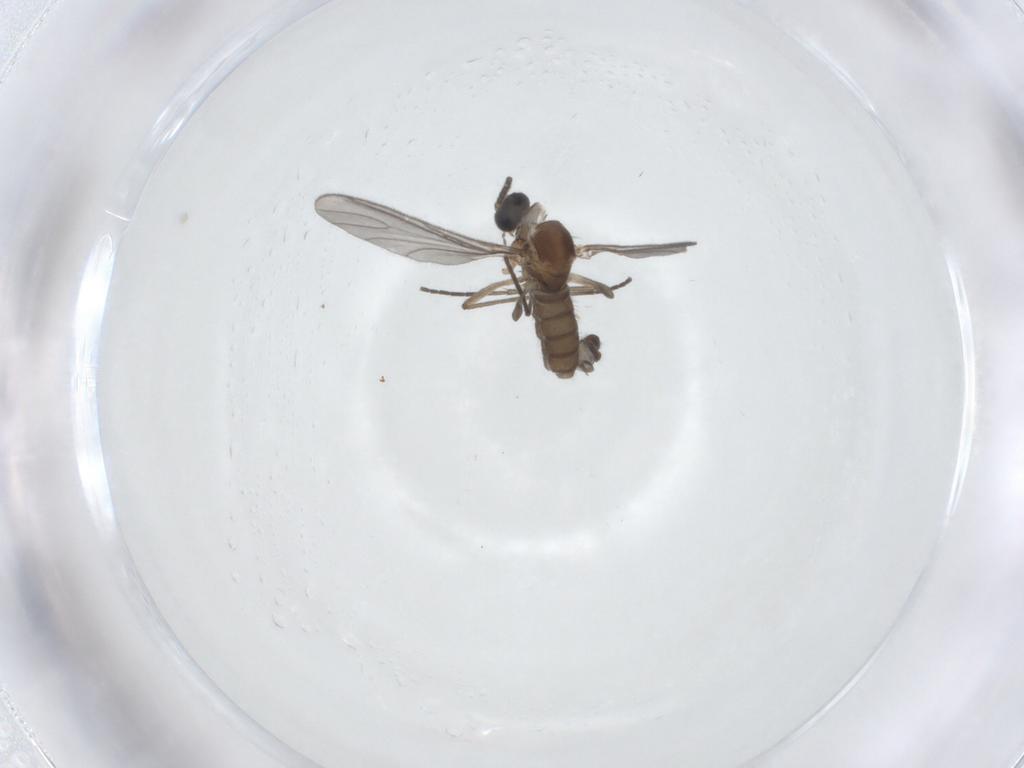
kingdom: Animalia
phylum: Arthropoda
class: Insecta
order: Diptera
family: Sciaridae
